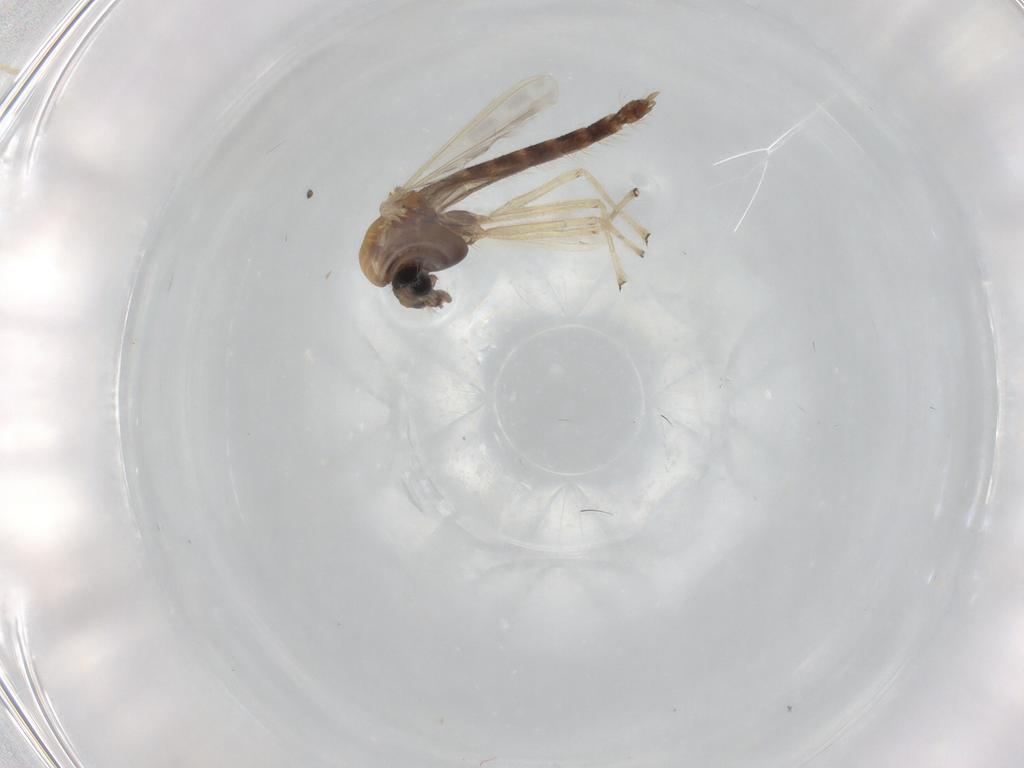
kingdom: Animalia
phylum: Arthropoda
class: Insecta
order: Diptera
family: Chironomidae
